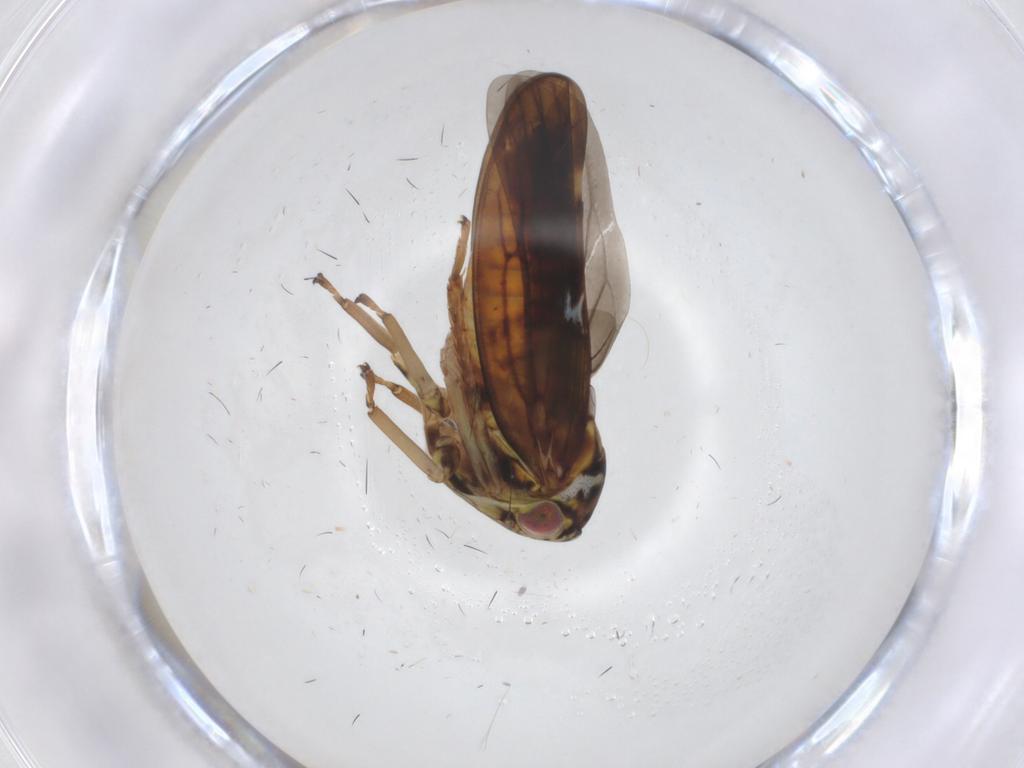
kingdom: Animalia
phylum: Arthropoda
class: Insecta
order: Hemiptera
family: Cicadellidae
